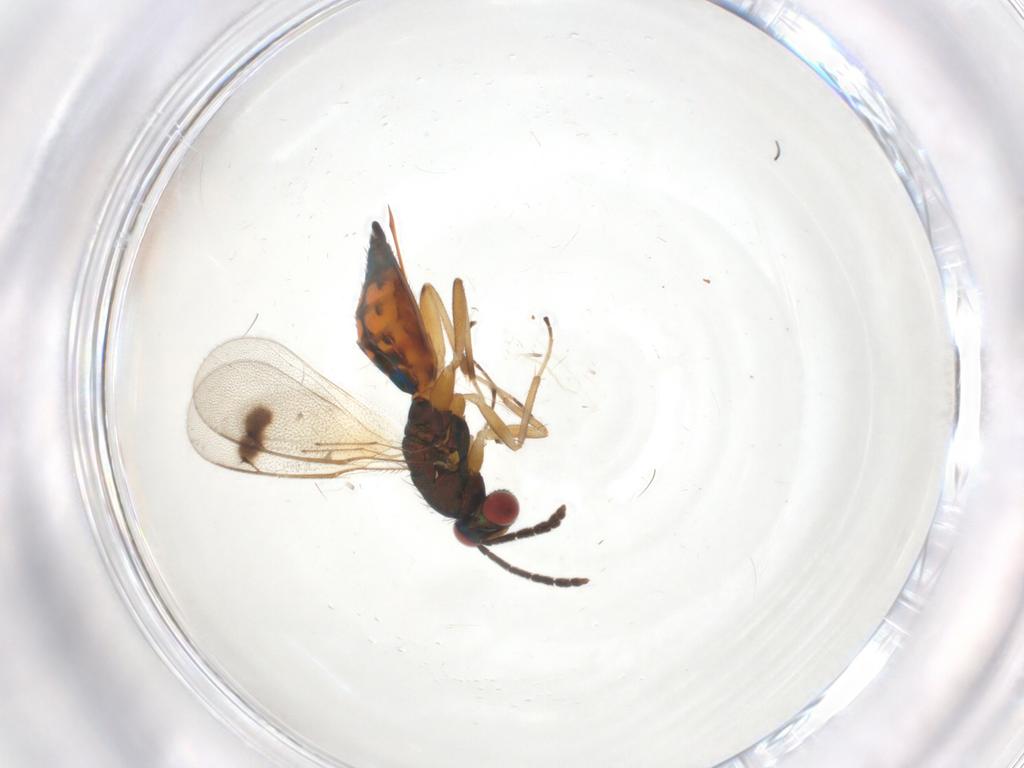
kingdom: Animalia
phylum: Arthropoda
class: Insecta
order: Hymenoptera
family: Eulophidae
